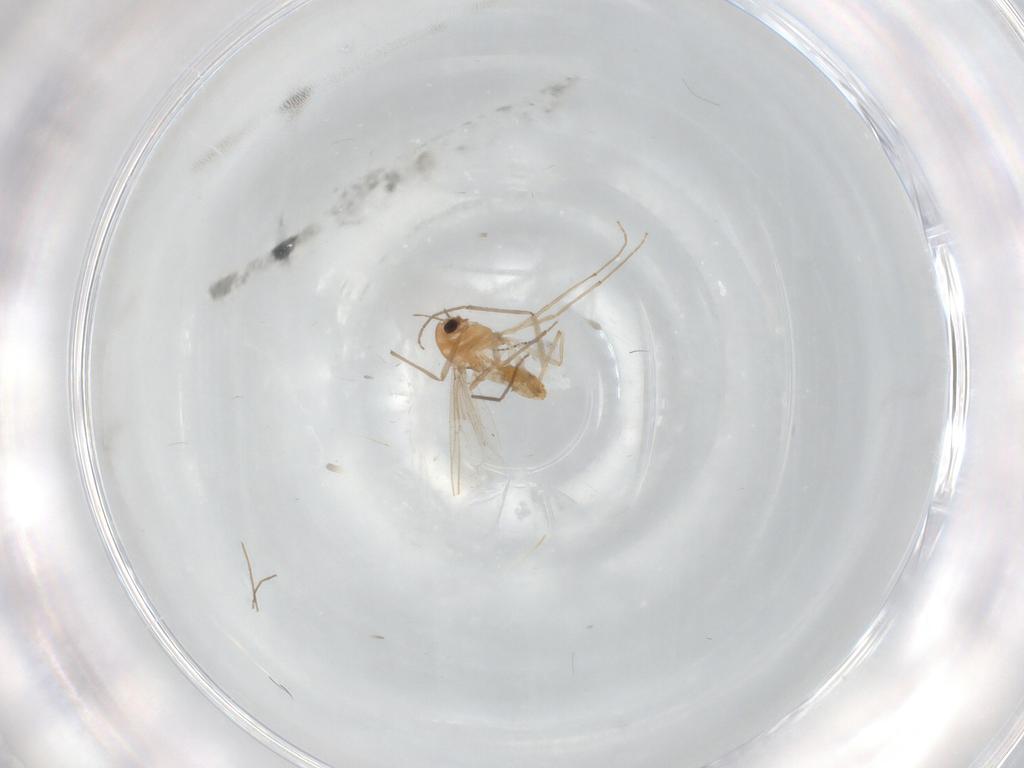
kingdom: Animalia
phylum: Arthropoda
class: Insecta
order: Diptera
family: Chironomidae
